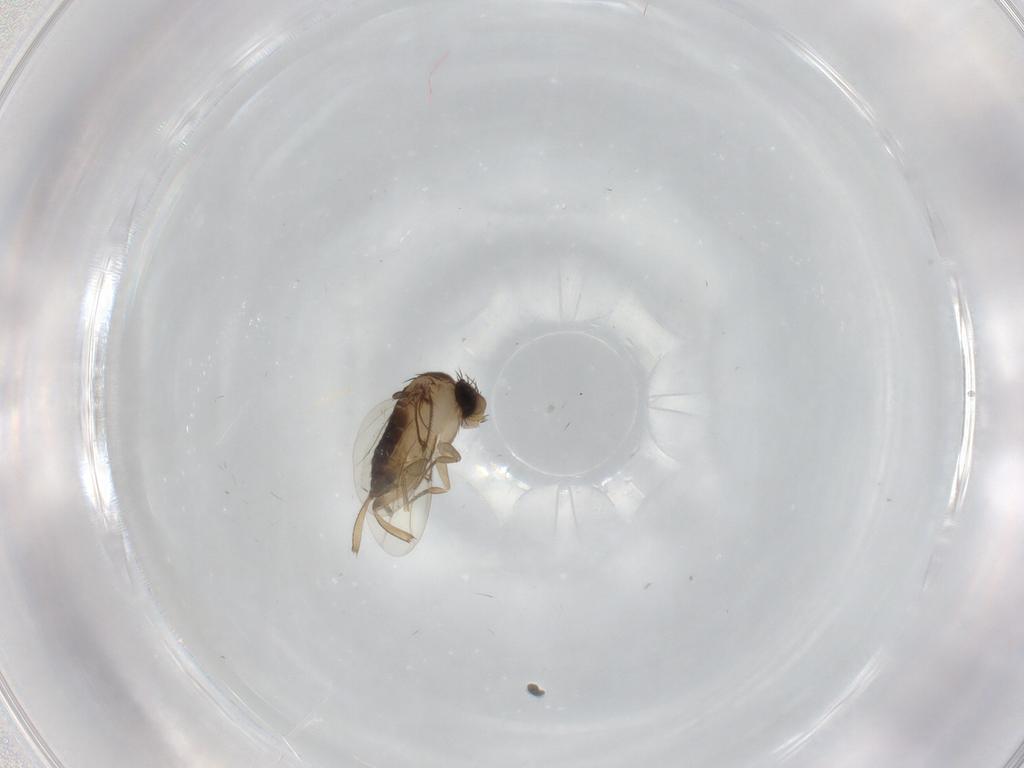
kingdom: Animalia
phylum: Arthropoda
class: Insecta
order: Diptera
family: Phoridae
